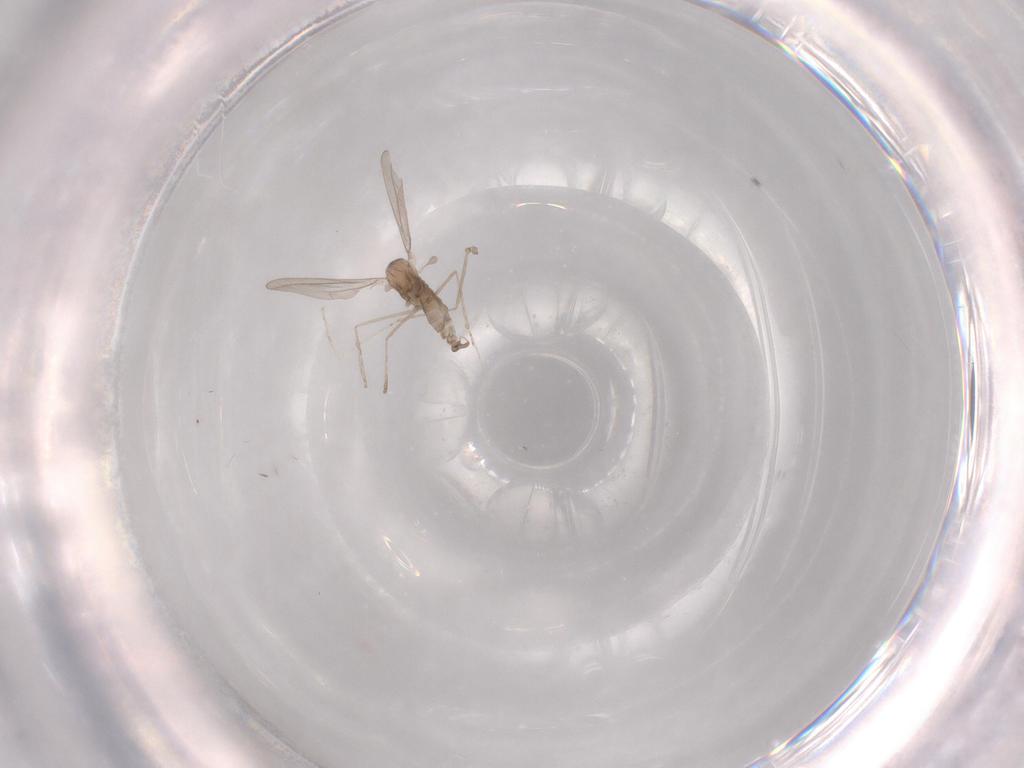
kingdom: Animalia
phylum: Arthropoda
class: Insecta
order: Diptera
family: Cecidomyiidae
